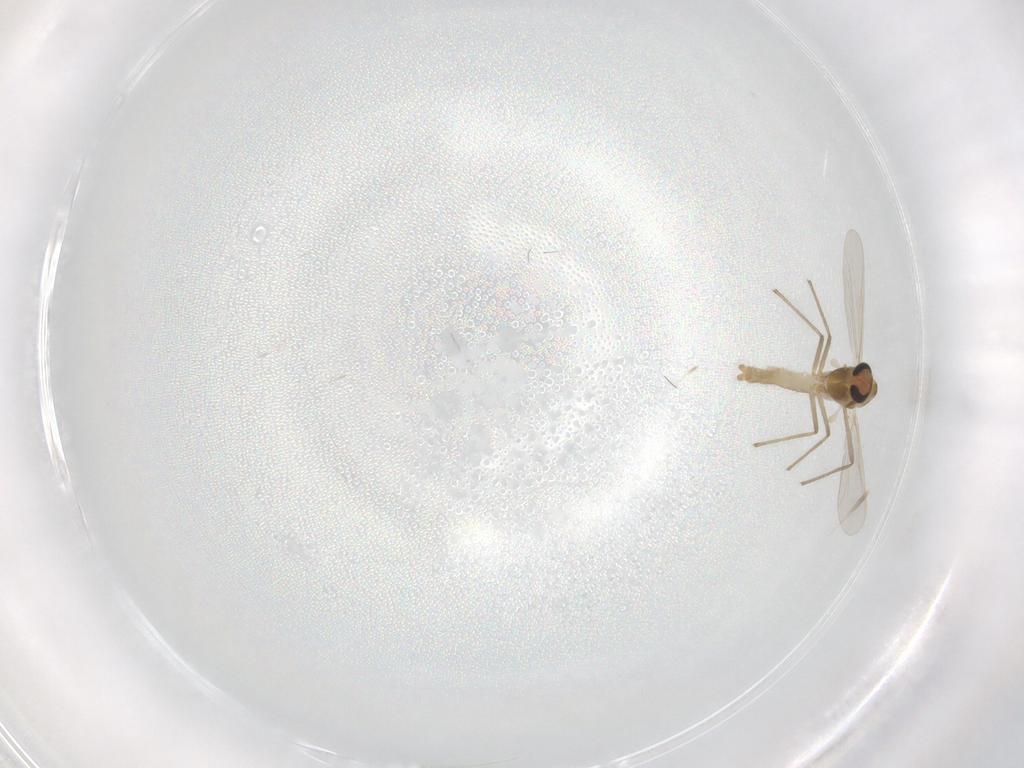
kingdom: Animalia
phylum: Arthropoda
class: Insecta
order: Diptera
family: Chironomidae
